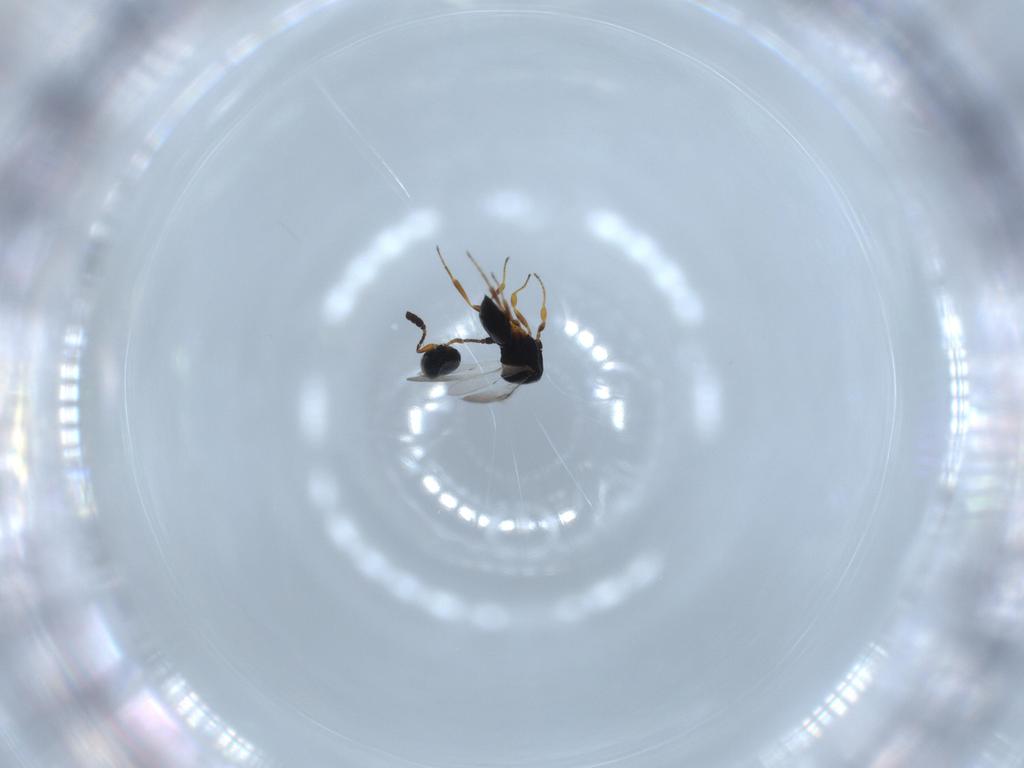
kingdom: Animalia
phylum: Arthropoda
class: Insecta
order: Hymenoptera
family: Scelionidae
